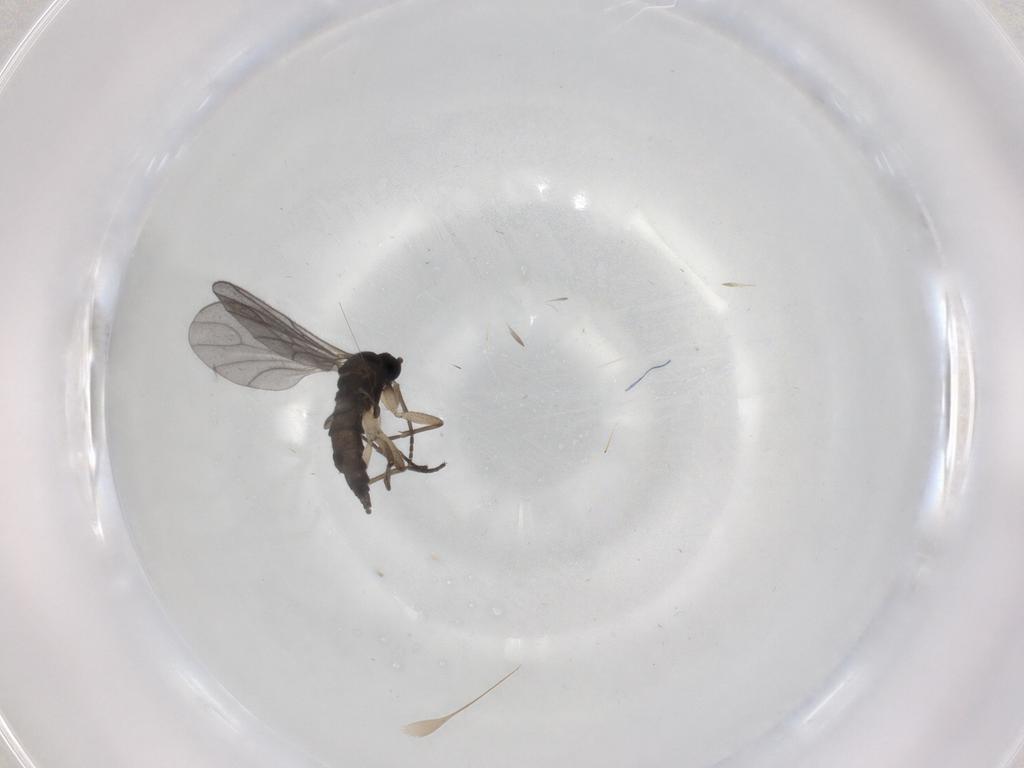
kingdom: Animalia
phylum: Arthropoda
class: Insecta
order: Diptera
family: Sciaridae
